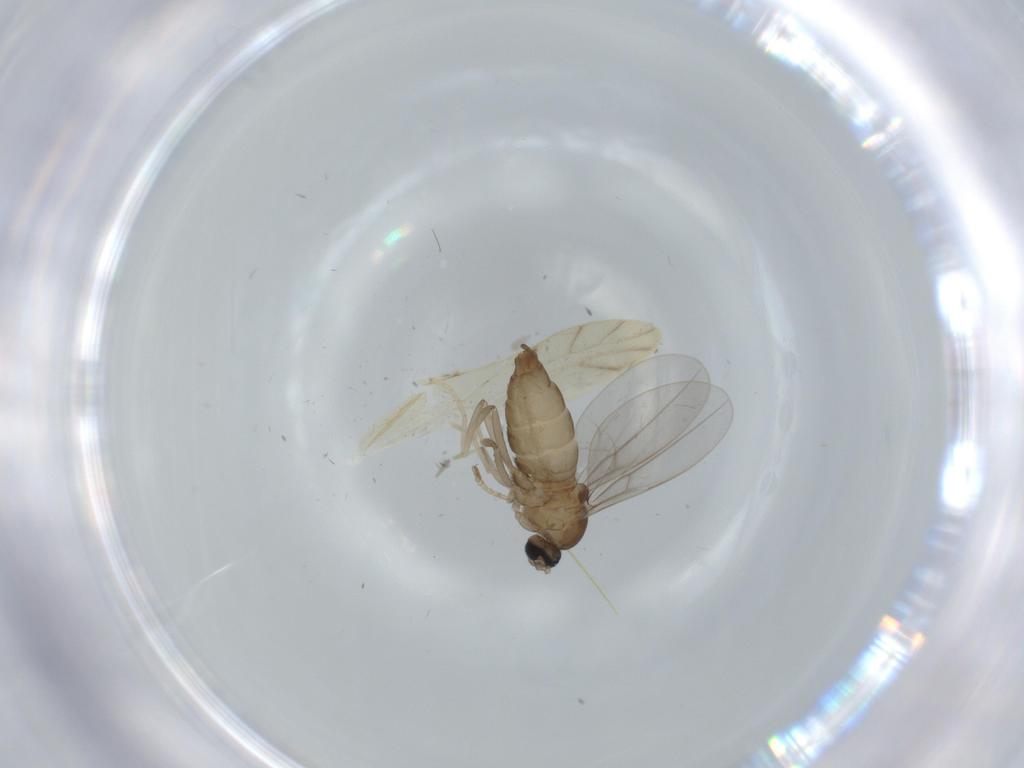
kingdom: Animalia
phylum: Arthropoda
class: Insecta
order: Diptera
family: Cecidomyiidae
